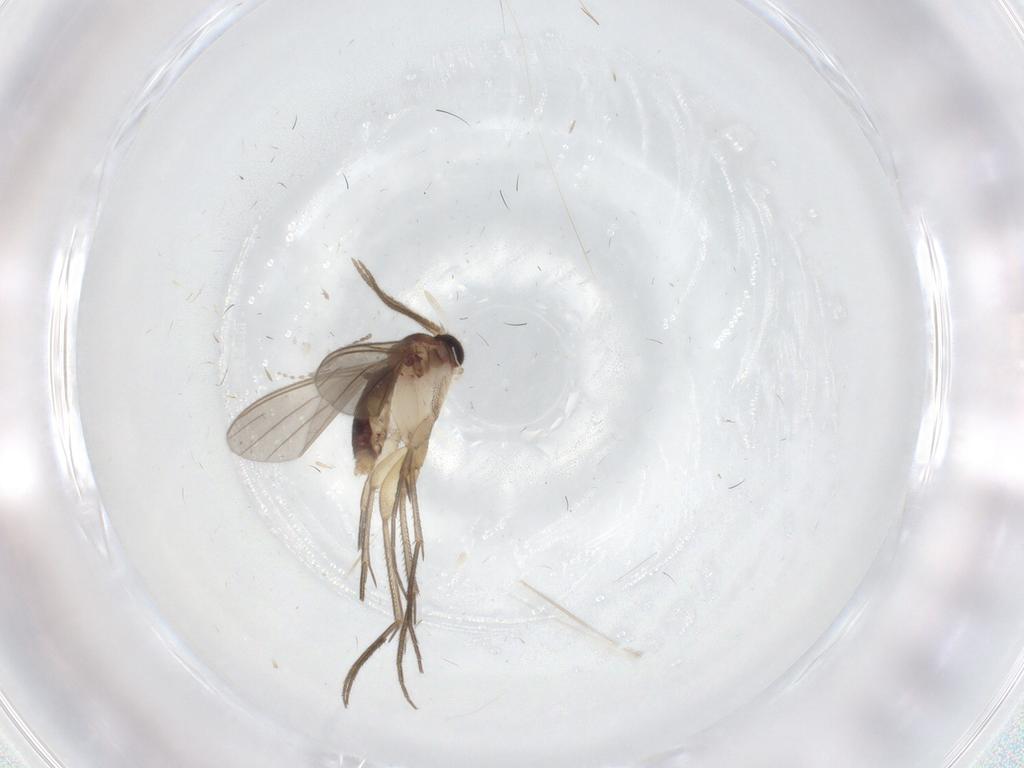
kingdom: Animalia
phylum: Arthropoda
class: Insecta
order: Diptera
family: Mycetophilidae
